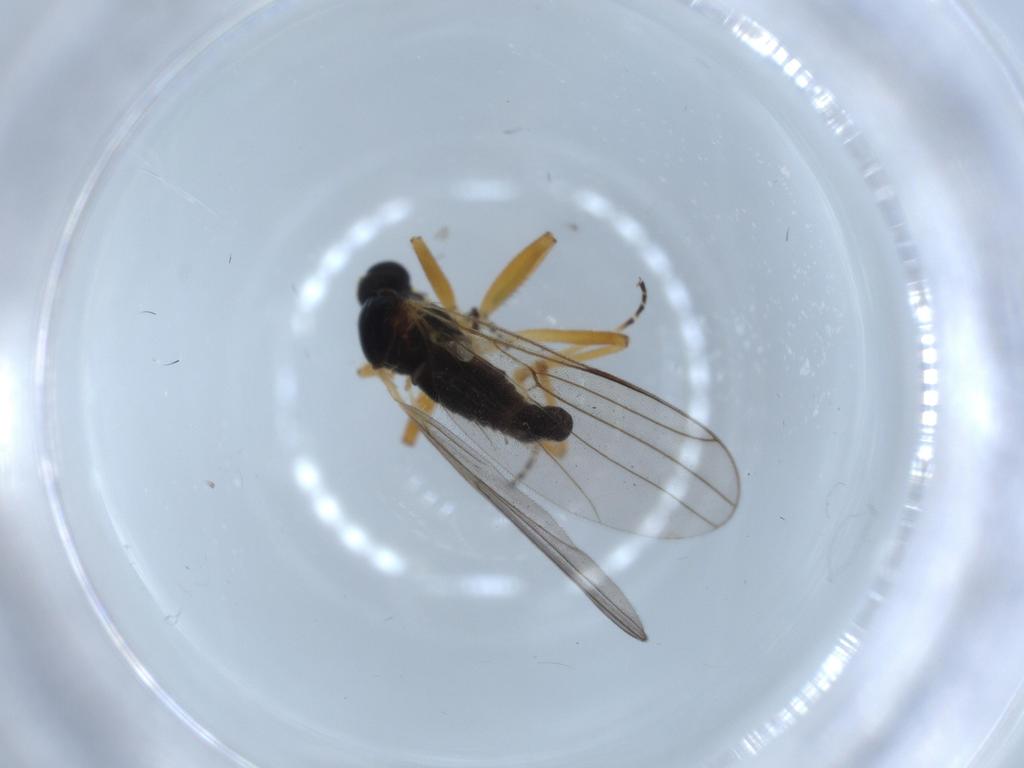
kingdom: Animalia
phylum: Arthropoda
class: Insecta
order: Diptera
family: Hybotidae
